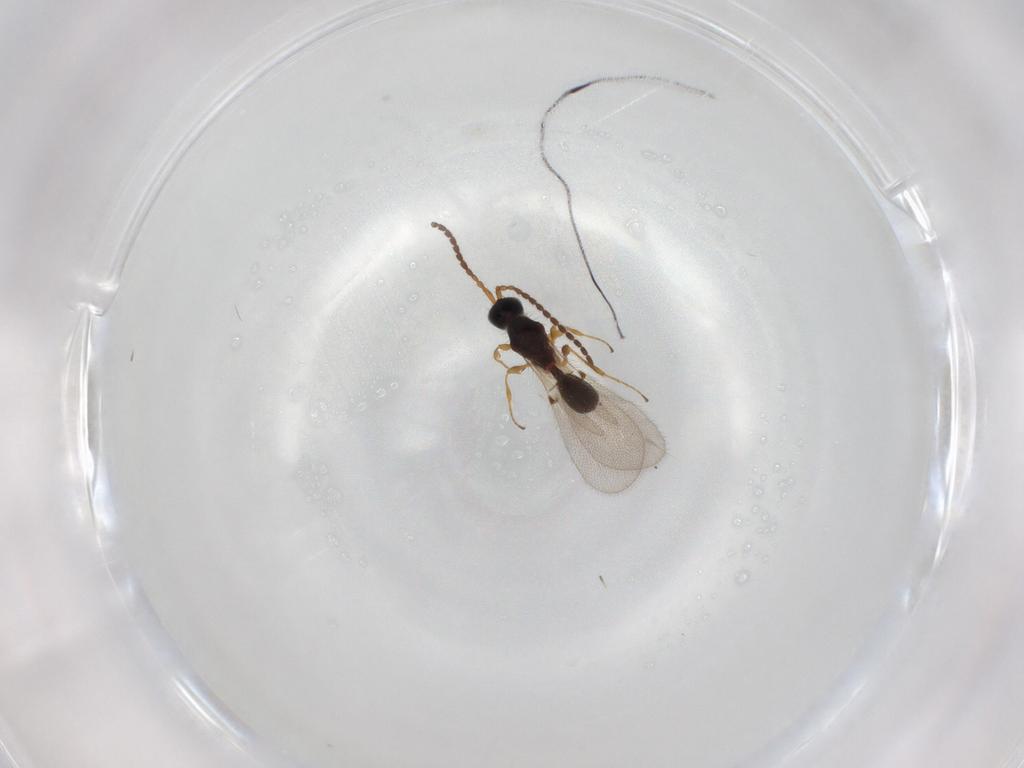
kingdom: Animalia
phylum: Arthropoda
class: Insecta
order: Hymenoptera
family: Diapriidae
